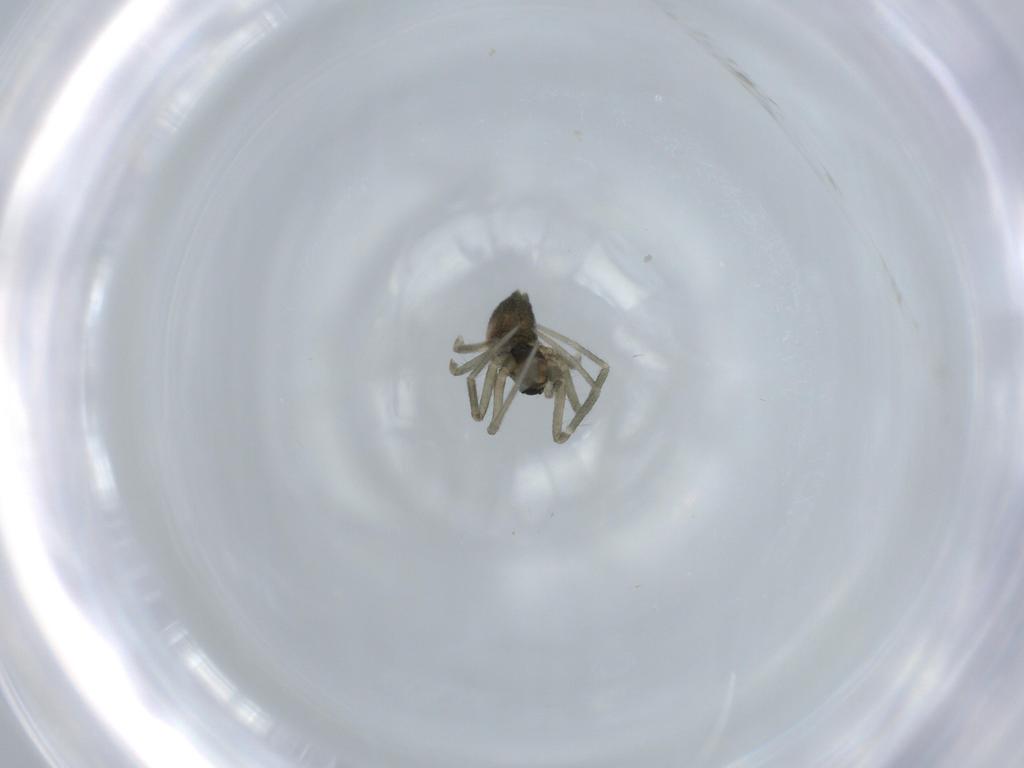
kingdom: Animalia
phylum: Arthropoda
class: Arachnida
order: Araneae
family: Linyphiidae
